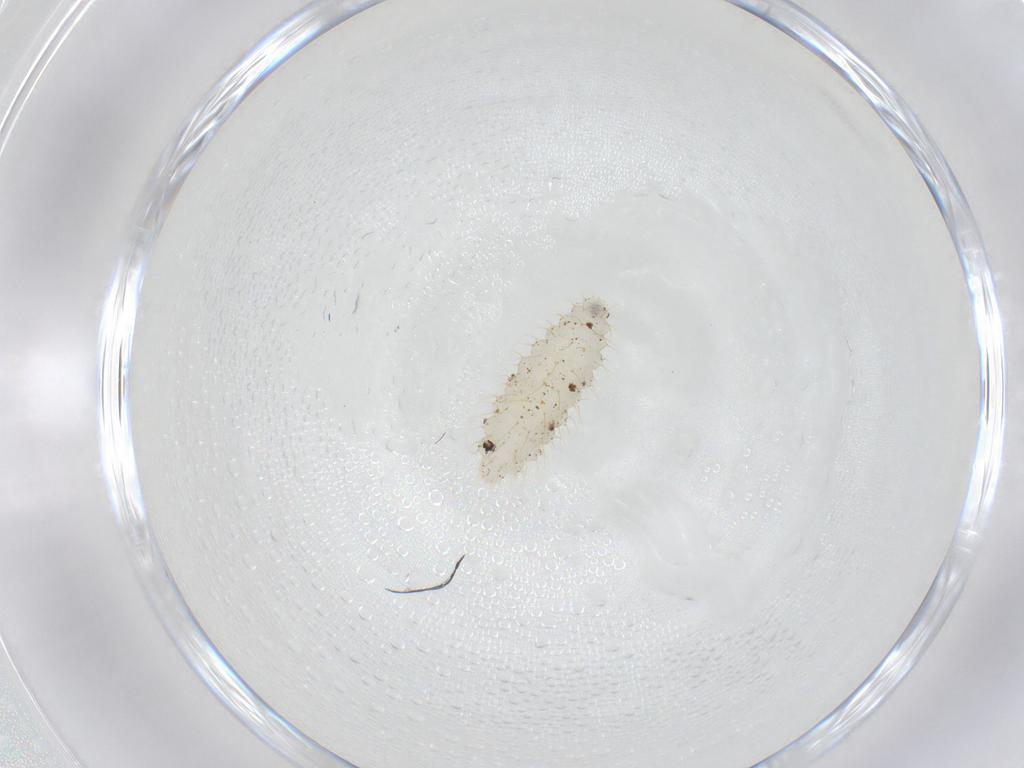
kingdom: Animalia
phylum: Arthropoda
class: Insecta
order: Diptera
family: Cecidomyiidae
